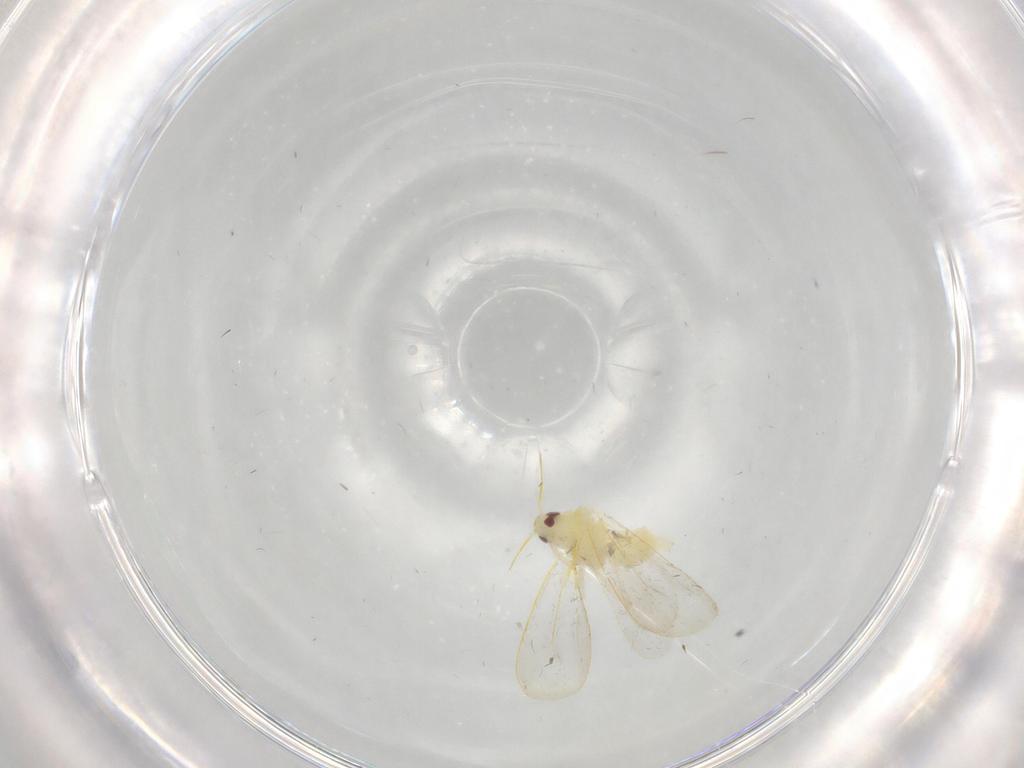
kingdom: Animalia
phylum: Arthropoda
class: Insecta
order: Hemiptera
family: Aleyrodidae
